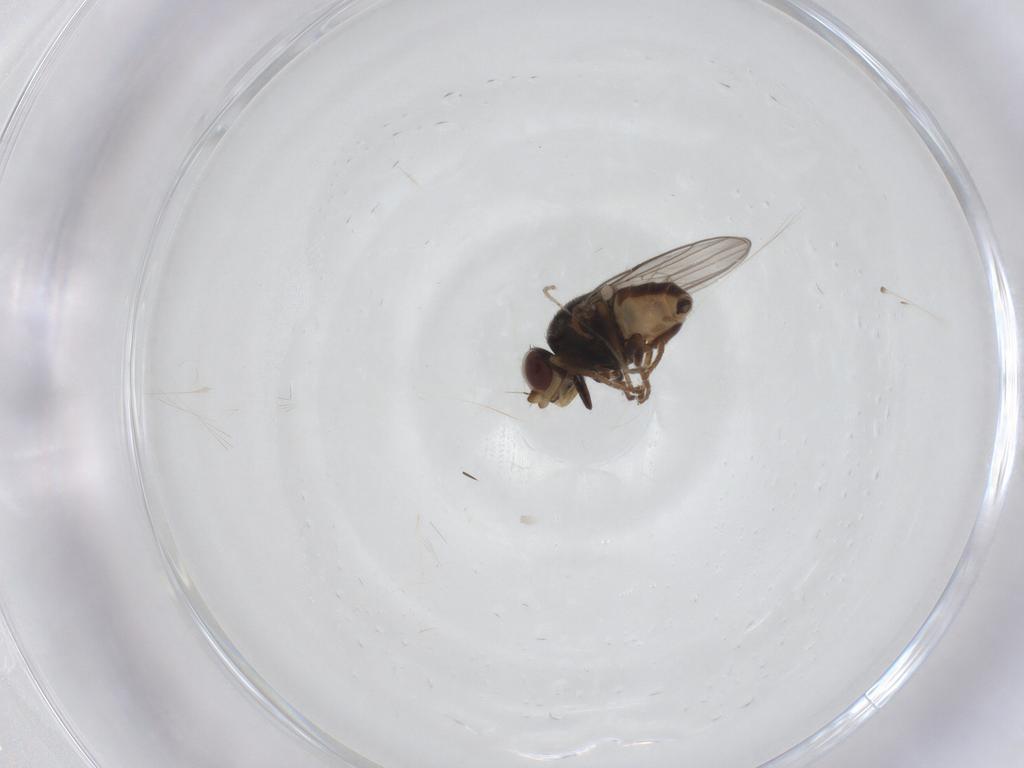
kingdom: Animalia
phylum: Arthropoda
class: Insecta
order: Diptera
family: Chloropidae
